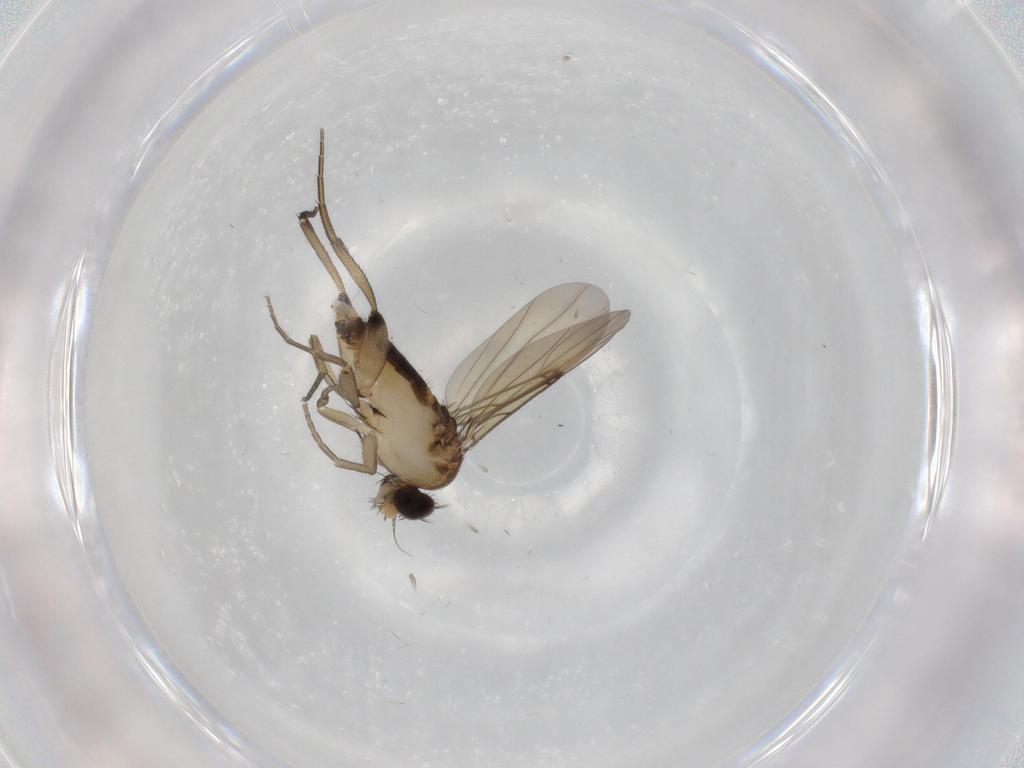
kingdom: Animalia
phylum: Arthropoda
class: Insecta
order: Diptera
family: Phoridae
